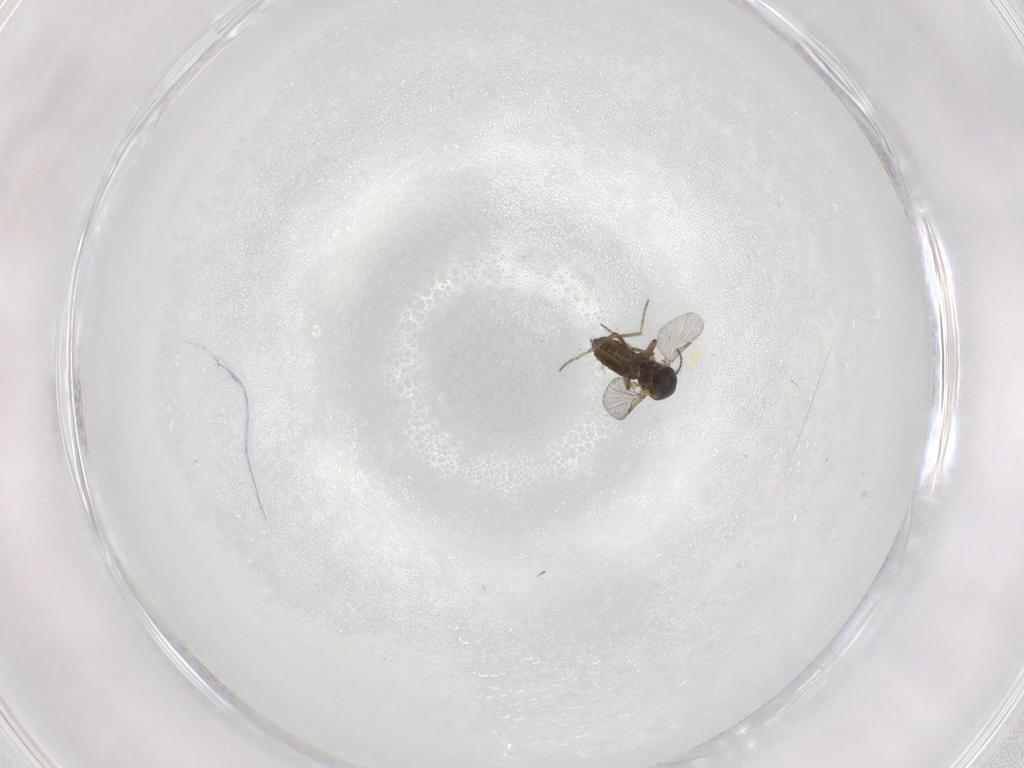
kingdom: Animalia
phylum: Arthropoda
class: Insecta
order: Diptera
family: Ceratopogonidae
